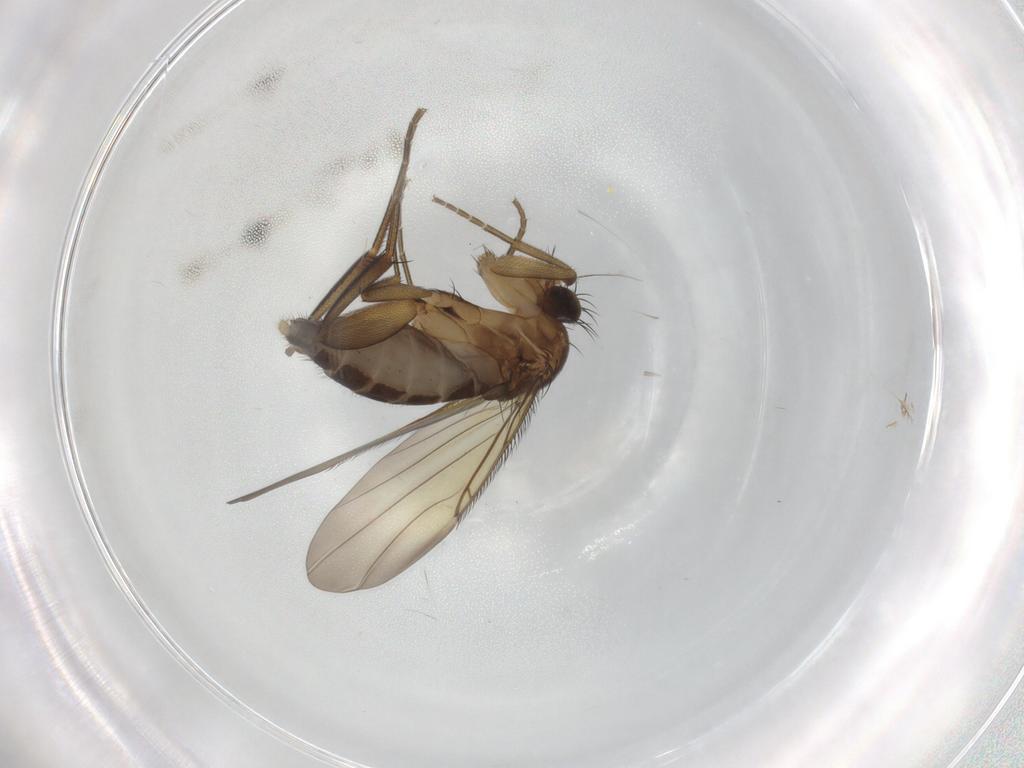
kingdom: Animalia
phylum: Arthropoda
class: Insecta
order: Diptera
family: Phoridae
